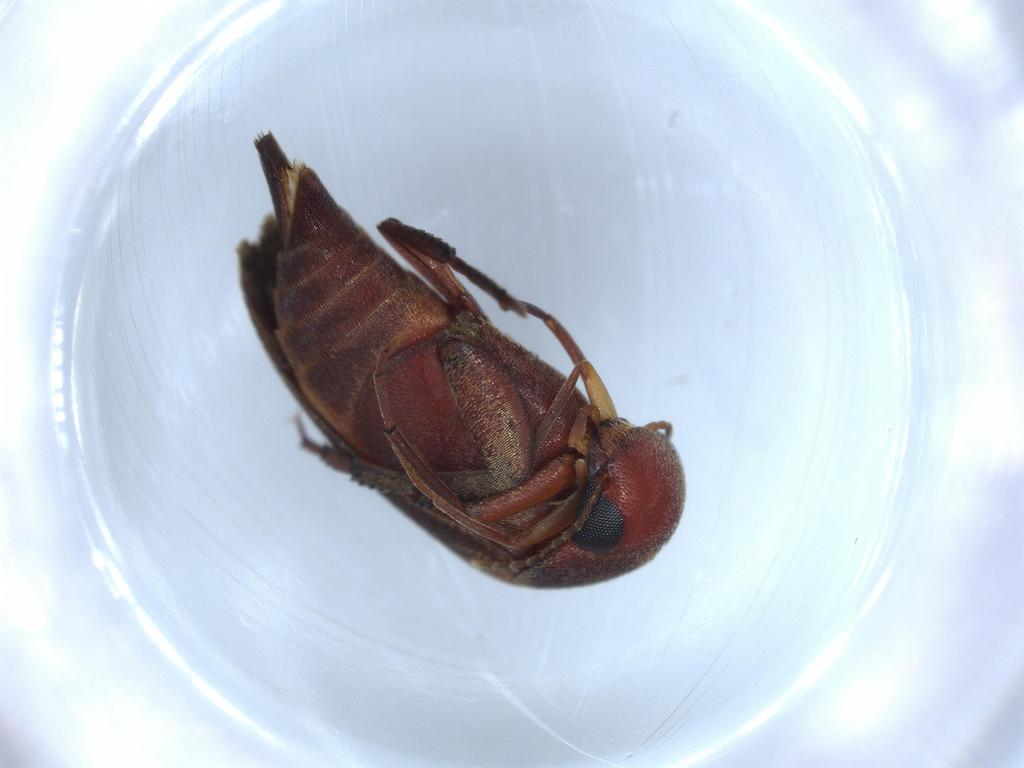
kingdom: Animalia
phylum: Arthropoda
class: Insecta
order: Coleoptera
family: Mordellidae
